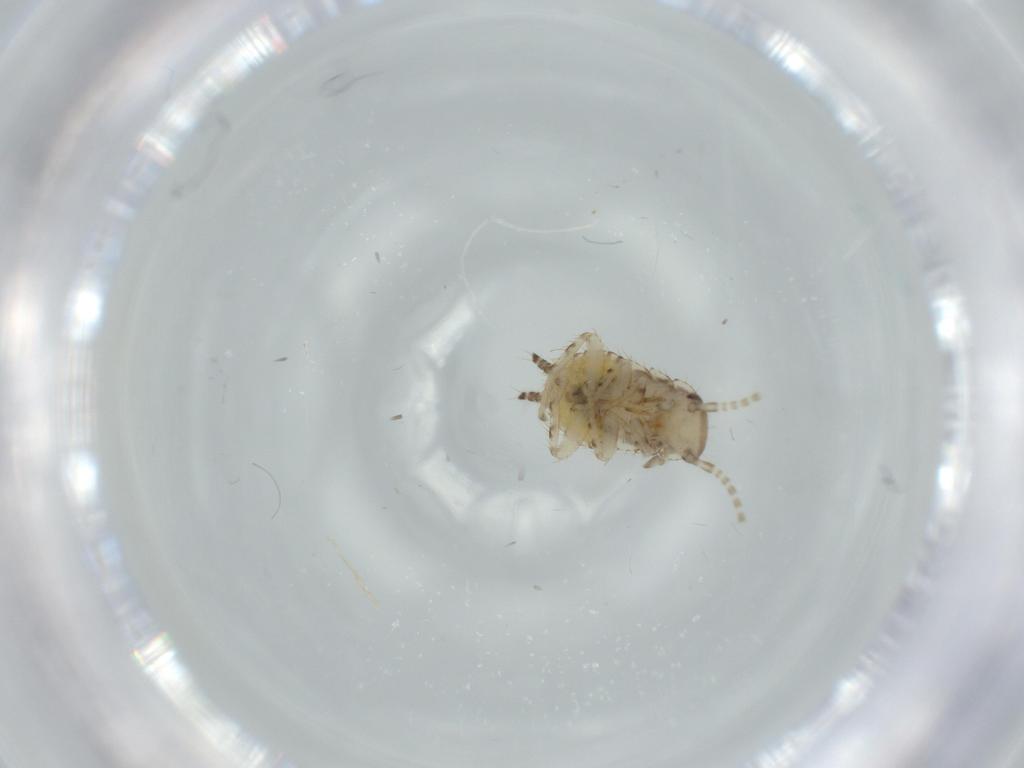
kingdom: Animalia
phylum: Arthropoda
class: Insecta
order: Blattodea
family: Ectobiidae
